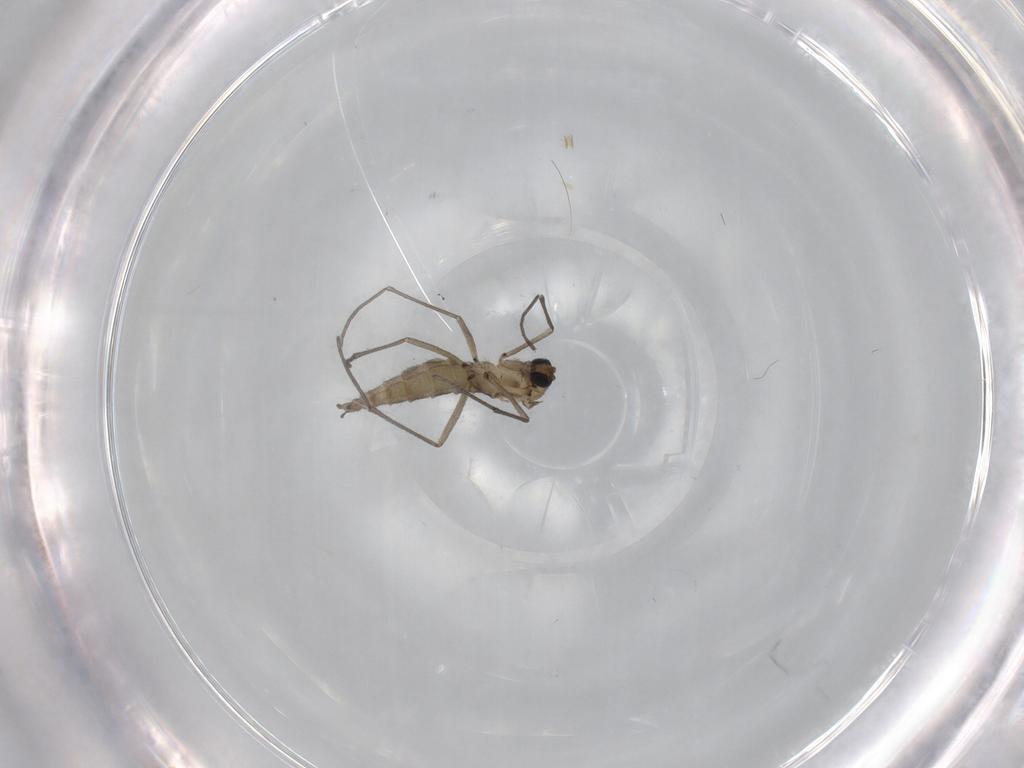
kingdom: Animalia
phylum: Arthropoda
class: Insecta
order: Diptera
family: Sciaridae
